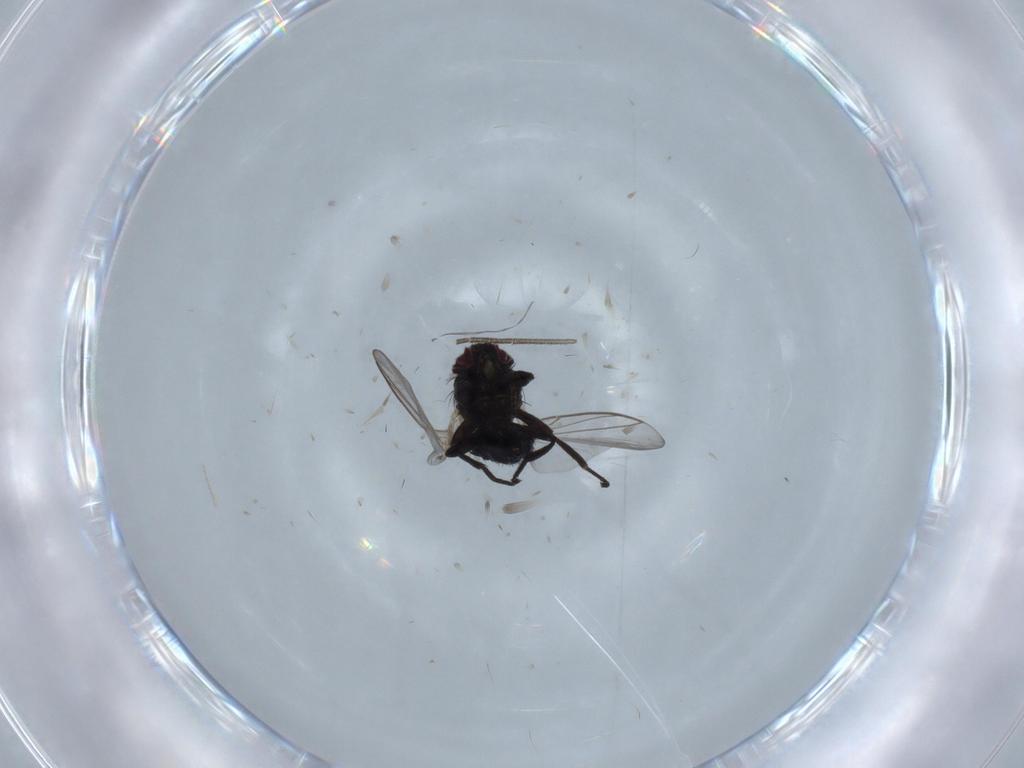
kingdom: Animalia
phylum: Arthropoda
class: Insecta
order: Diptera
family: Cecidomyiidae
